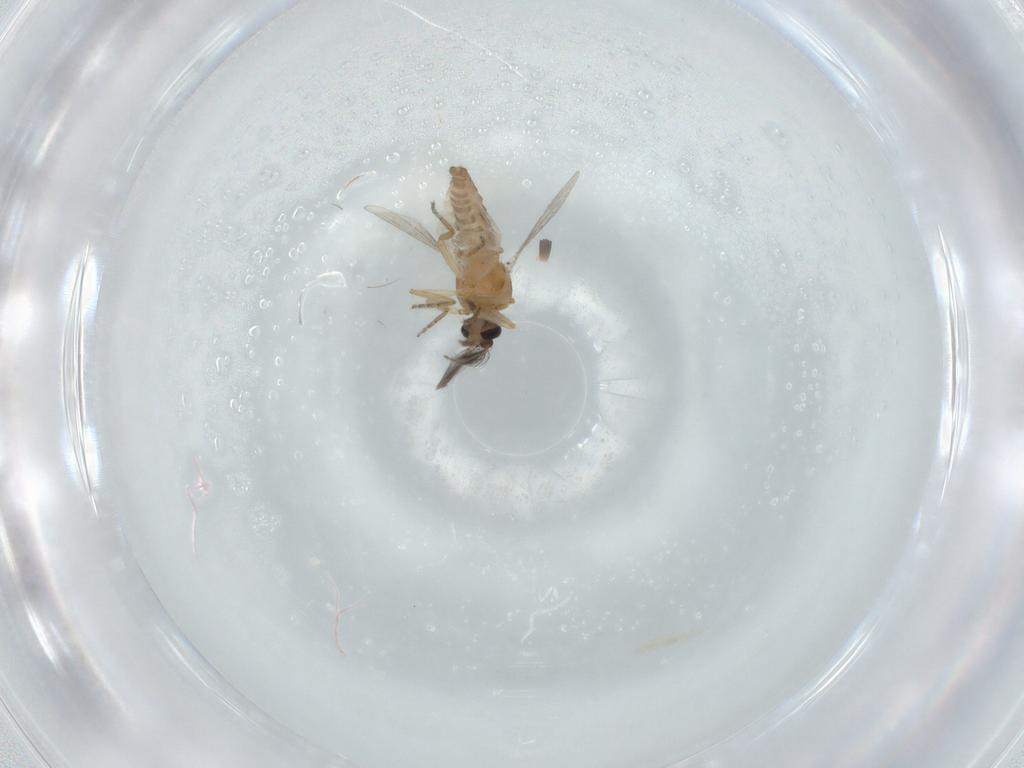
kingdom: Animalia
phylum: Arthropoda
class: Insecta
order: Diptera
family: Ceratopogonidae
